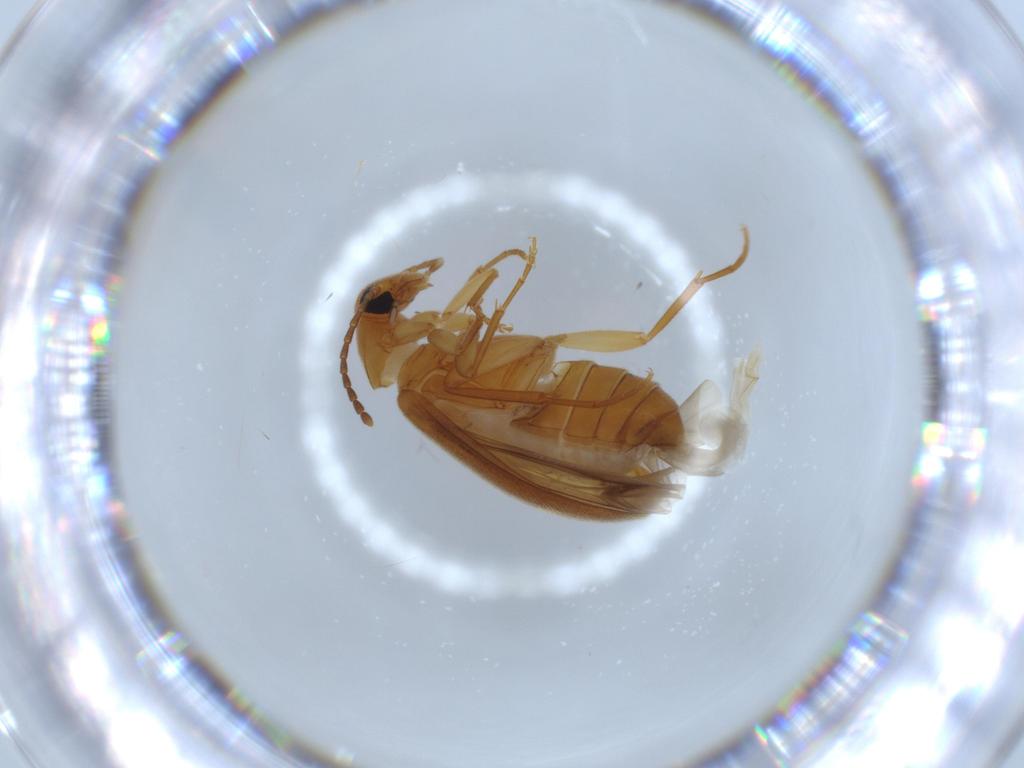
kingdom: Animalia
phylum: Arthropoda
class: Insecta
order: Coleoptera
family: Scraptiidae
